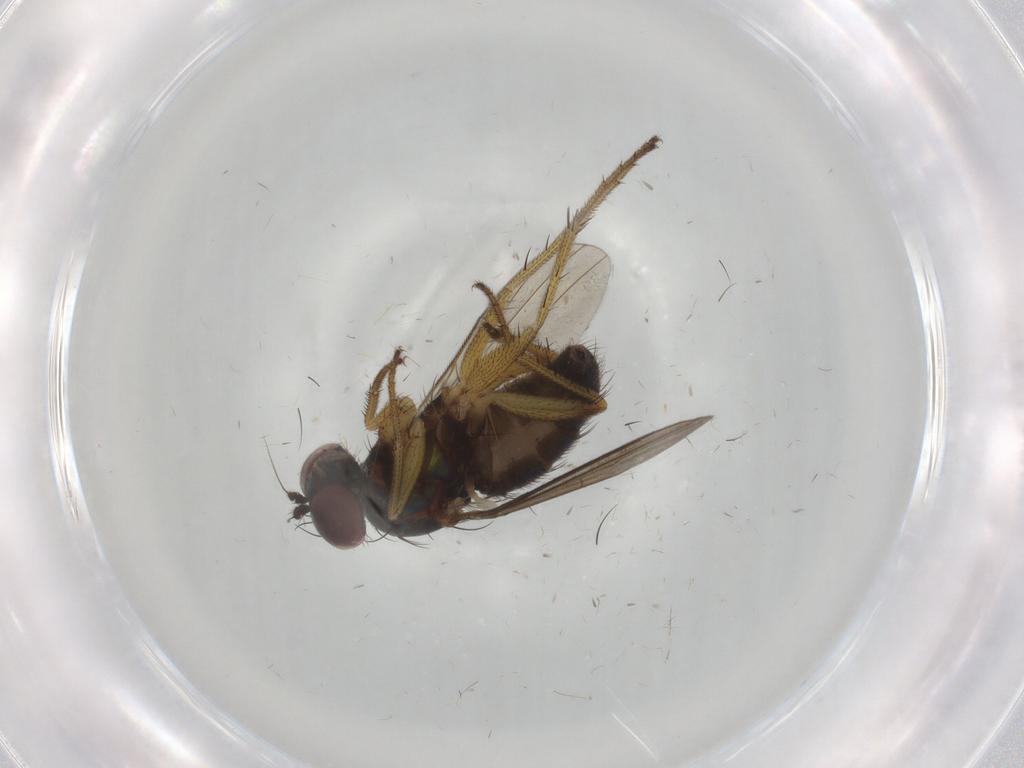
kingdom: Animalia
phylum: Arthropoda
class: Insecta
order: Diptera
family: Dolichopodidae
